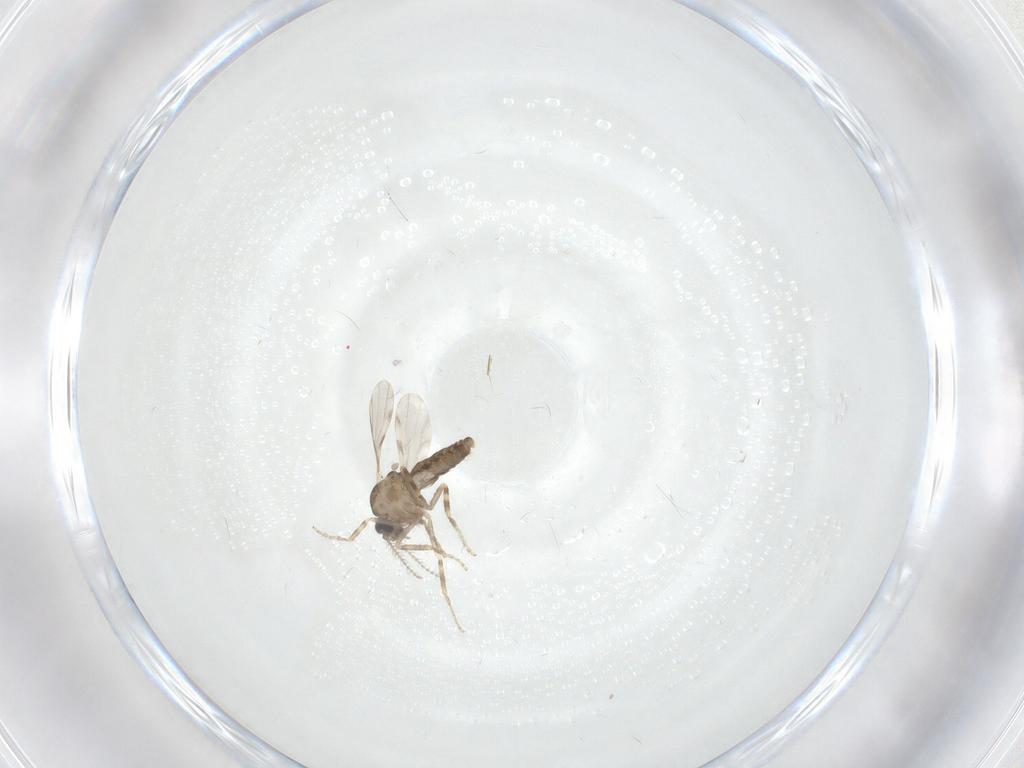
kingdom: Animalia
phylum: Arthropoda
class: Insecta
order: Diptera
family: Ceratopogonidae
